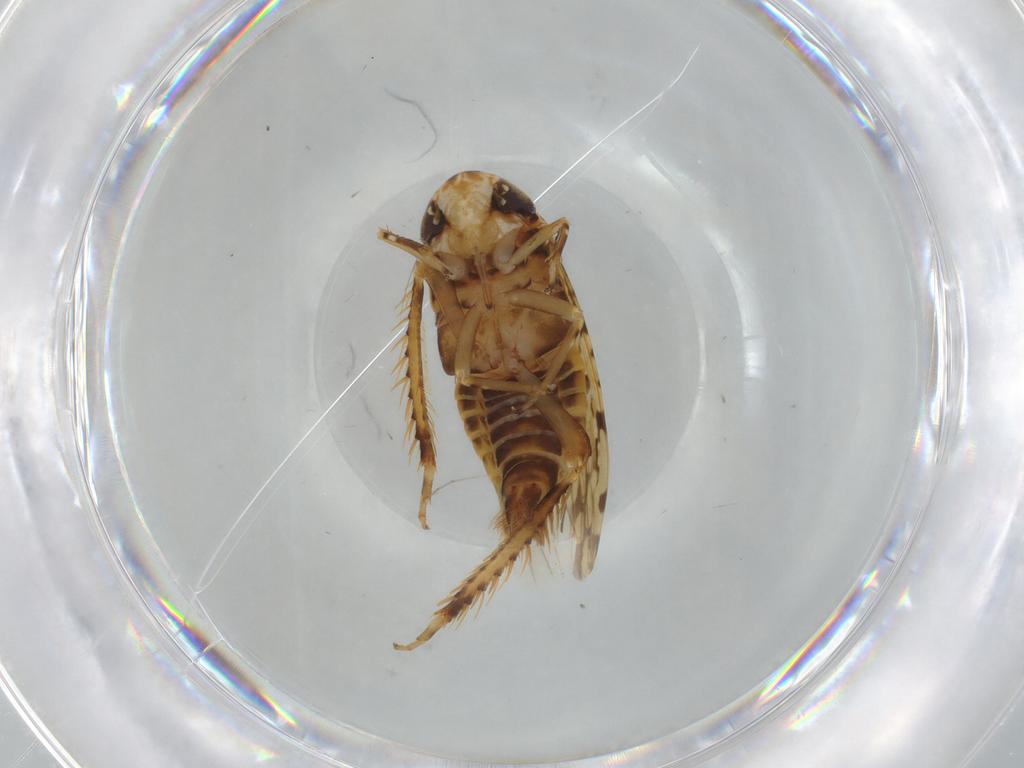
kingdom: Animalia
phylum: Arthropoda
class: Insecta
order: Hemiptera
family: Cicadellidae
